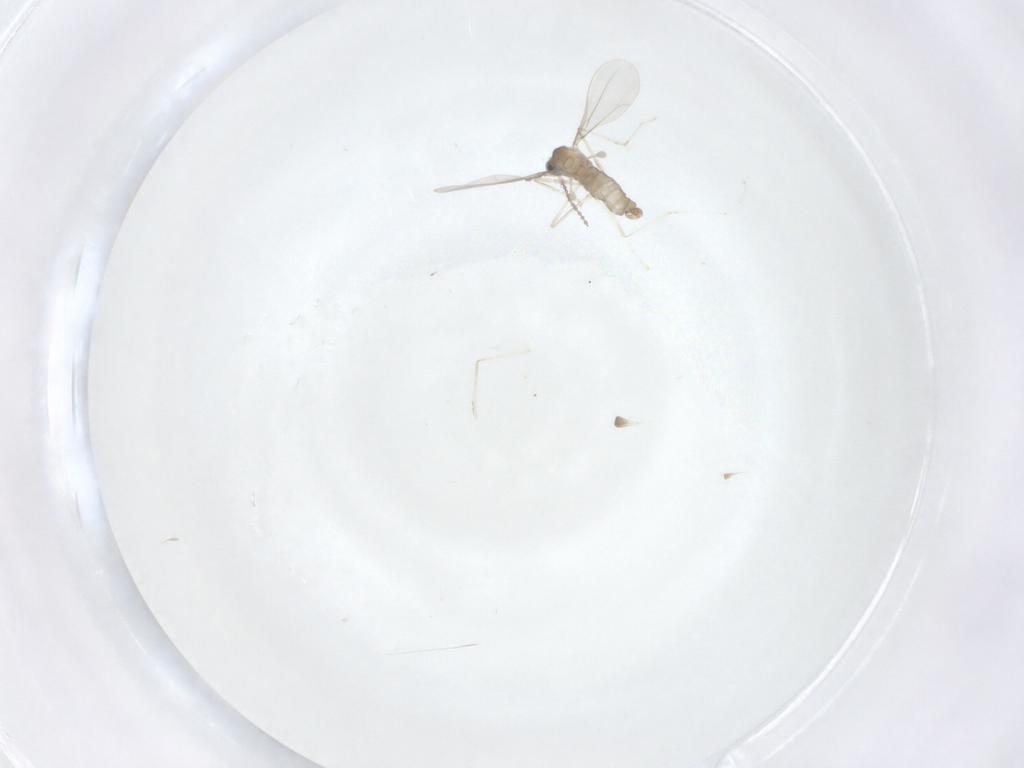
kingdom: Animalia
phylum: Arthropoda
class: Insecta
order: Diptera
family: Cecidomyiidae
